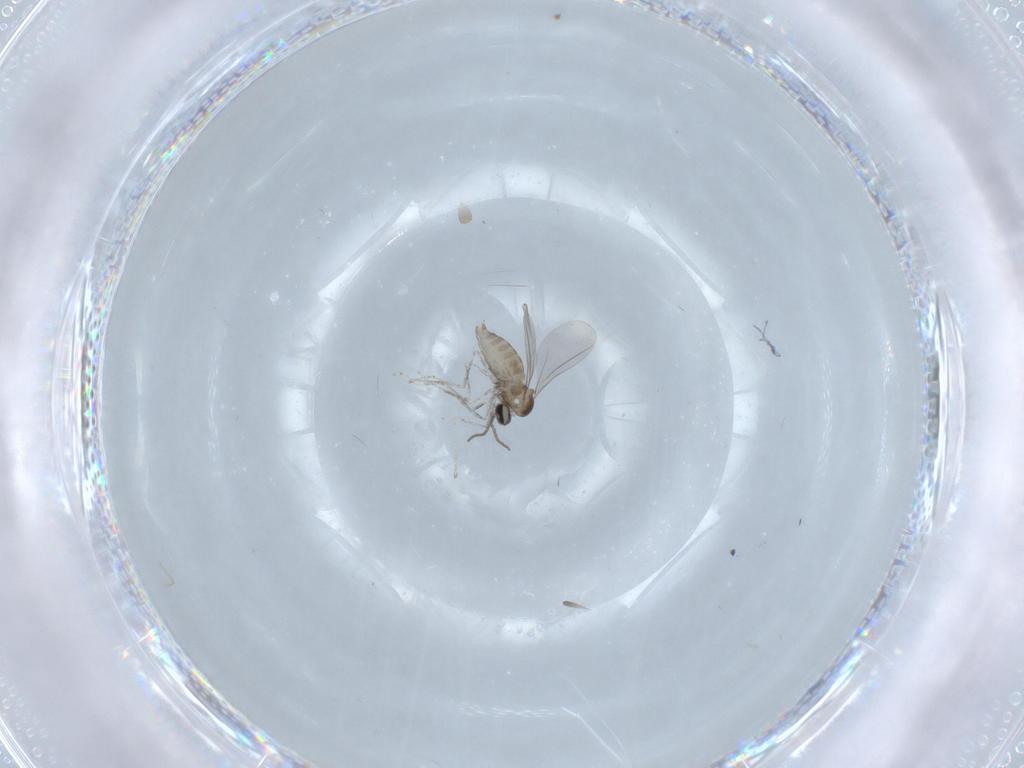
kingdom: Animalia
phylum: Arthropoda
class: Insecta
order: Diptera
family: Cecidomyiidae
